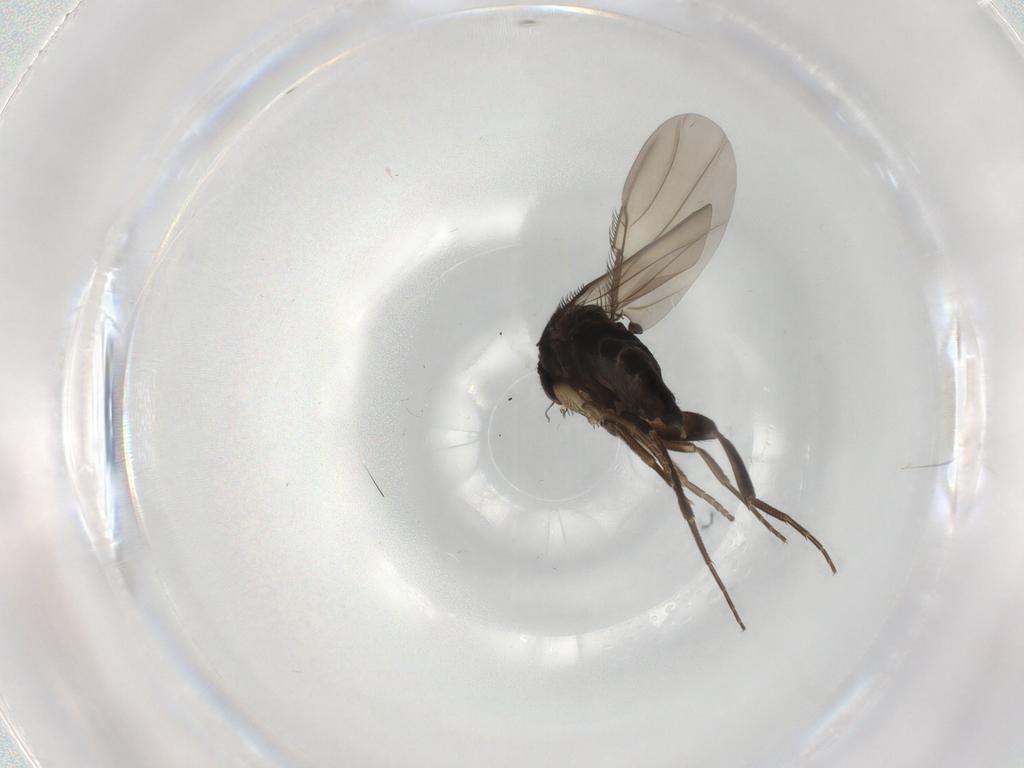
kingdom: Animalia
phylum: Arthropoda
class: Insecta
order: Diptera
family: Phoridae
